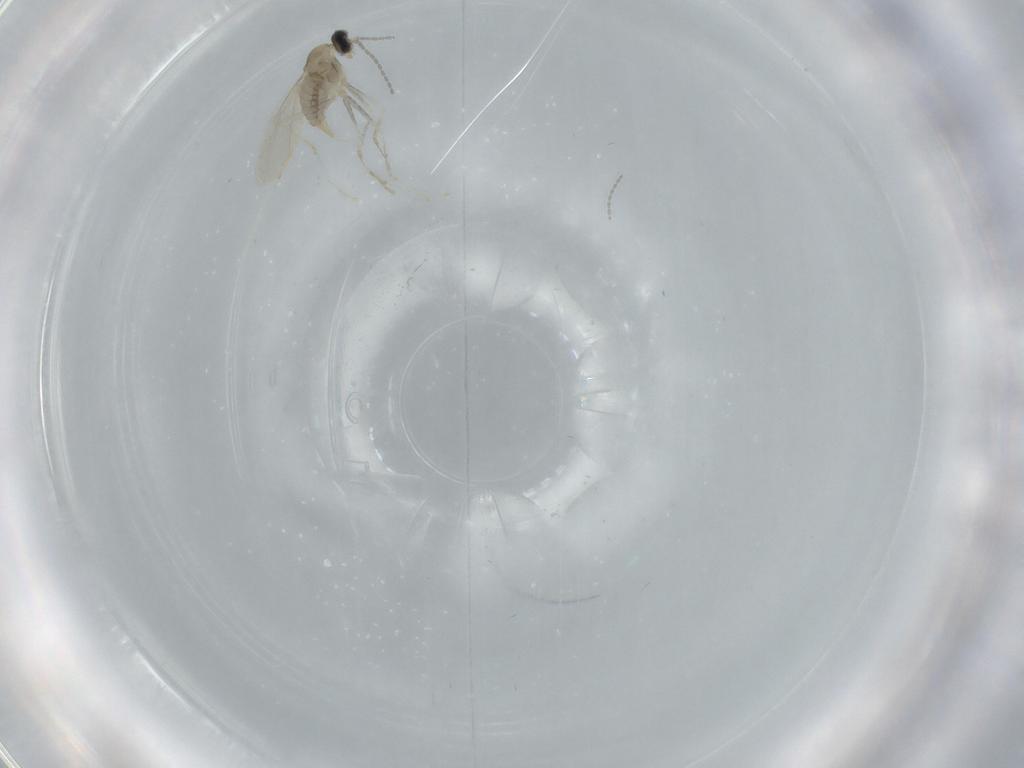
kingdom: Animalia
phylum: Arthropoda
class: Insecta
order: Diptera
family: Cecidomyiidae
